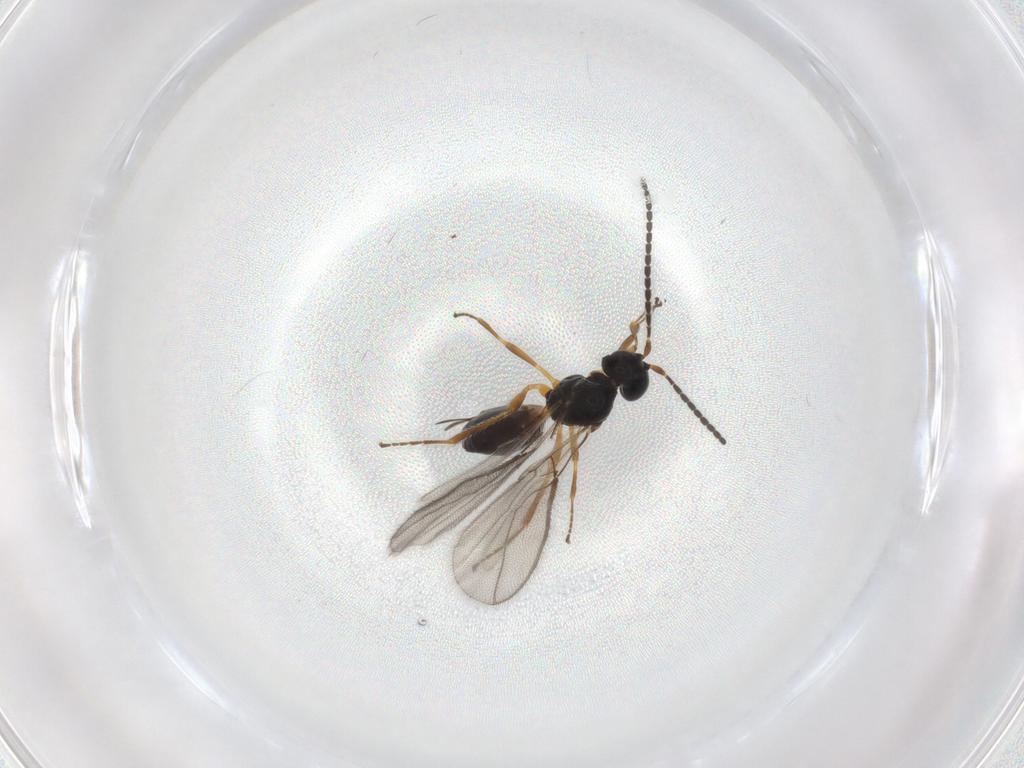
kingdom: Animalia
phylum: Arthropoda
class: Insecta
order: Hymenoptera
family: Braconidae
